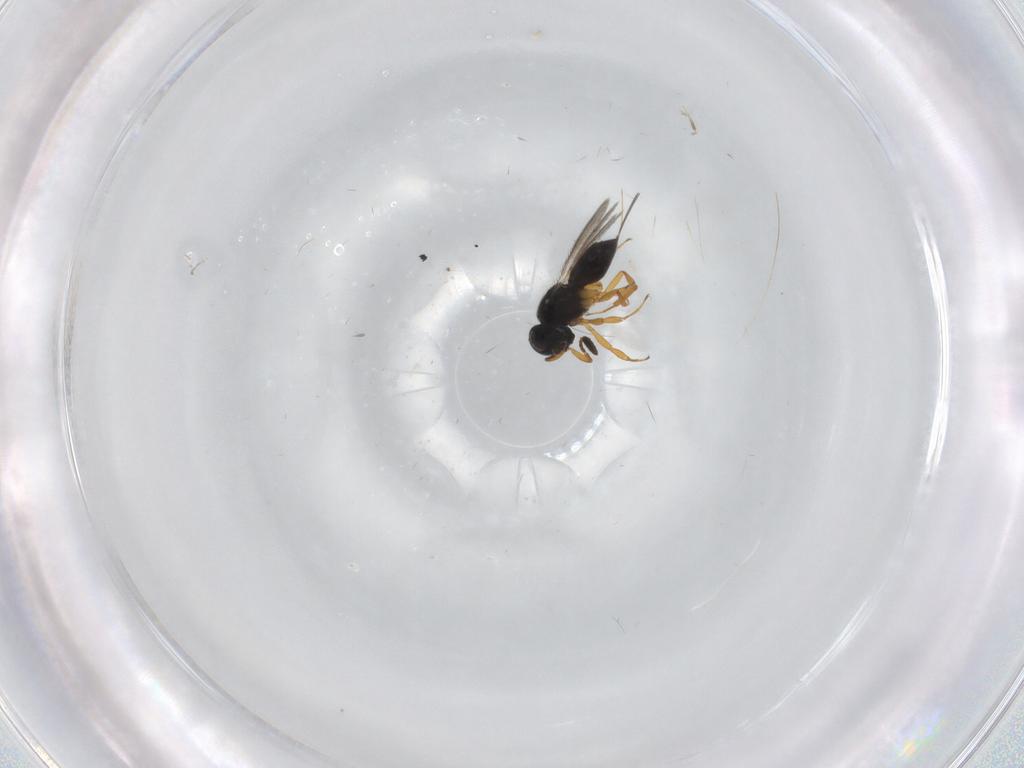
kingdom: Animalia
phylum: Arthropoda
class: Insecta
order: Hymenoptera
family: Scelionidae
